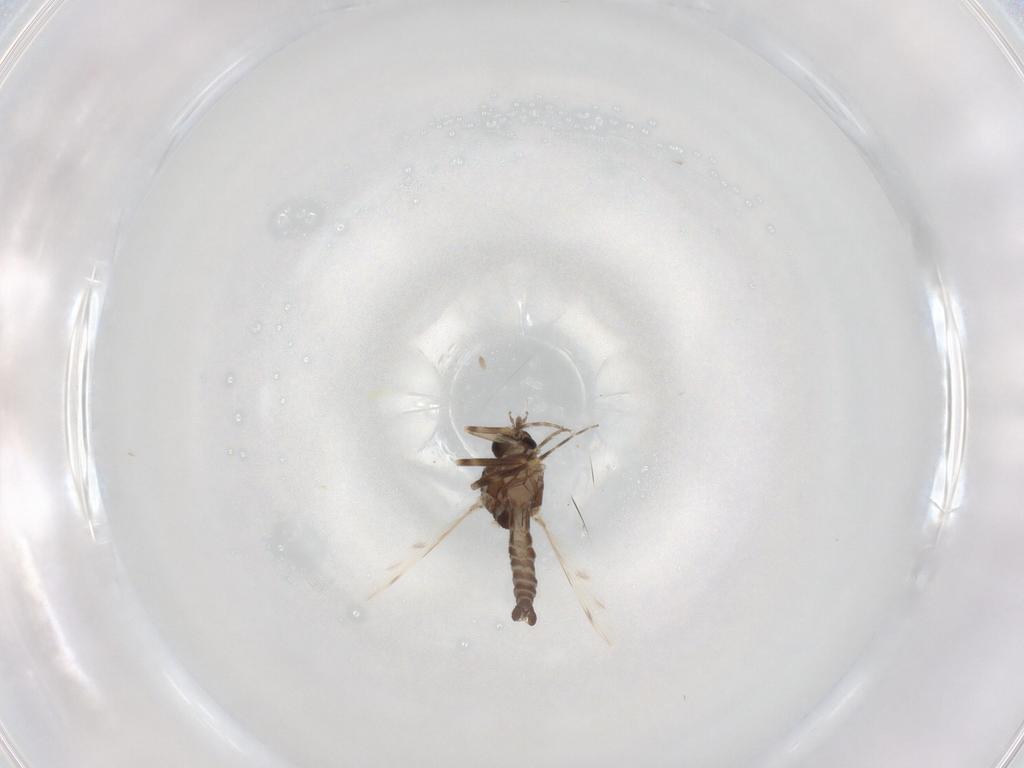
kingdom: Animalia
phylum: Arthropoda
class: Insecta
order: Diptera
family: Ceratopogonidae
